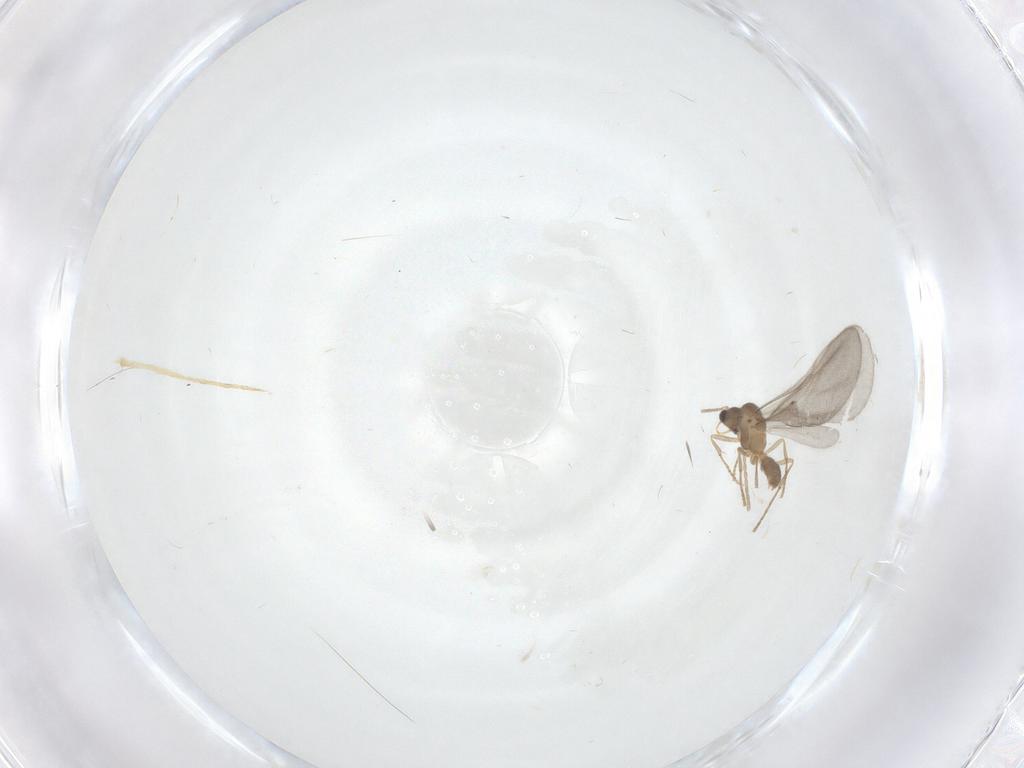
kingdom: Animalia
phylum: Arthropoda
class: Insecta
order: Hymenoptera
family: Formicidae
